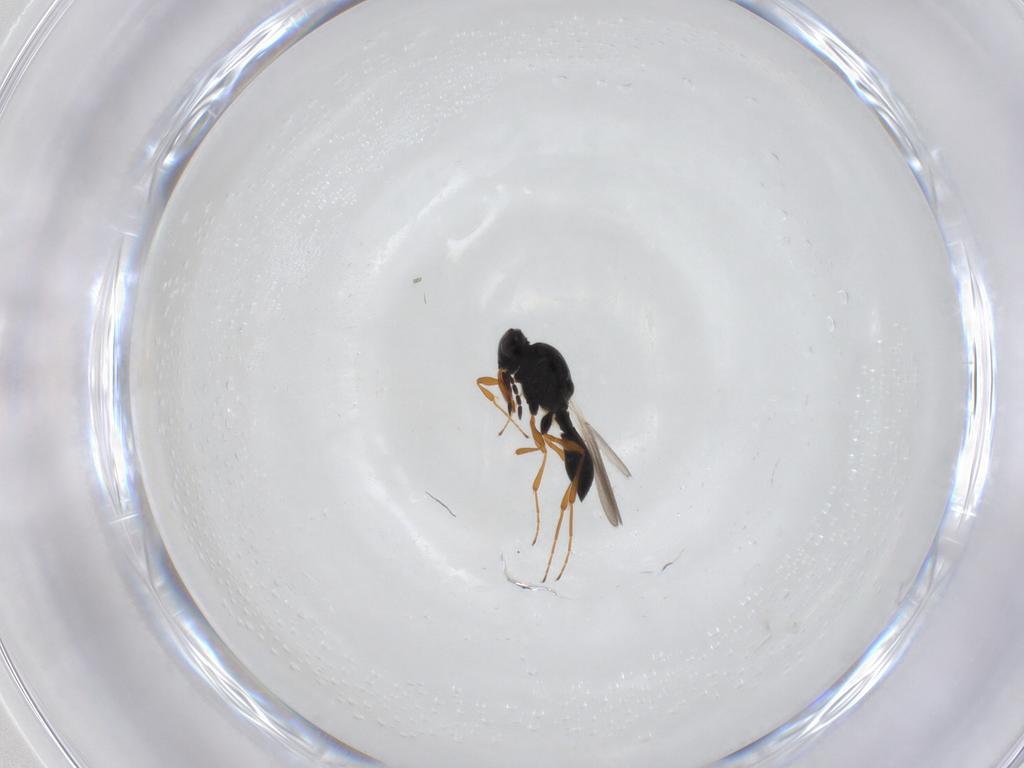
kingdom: Animalia
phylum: Arthropoda
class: Insecta
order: Hymenoptera
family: Platygastridae
